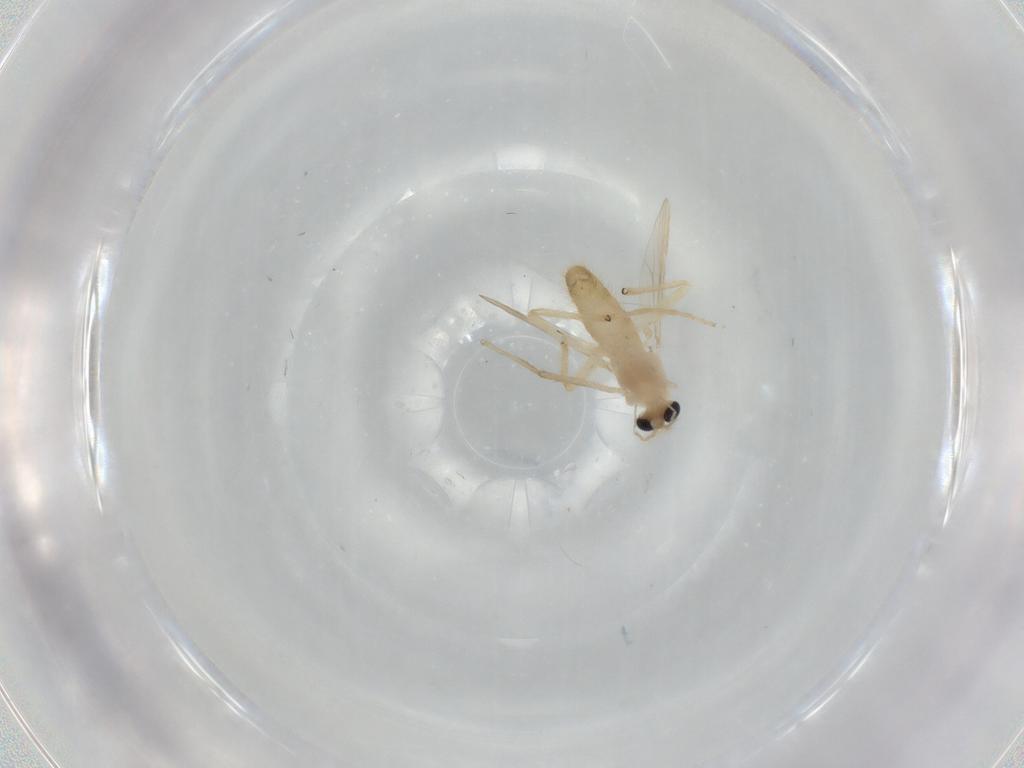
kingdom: Animalia
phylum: Arthropoda
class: Insecta
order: Diptera
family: Chironomidae
